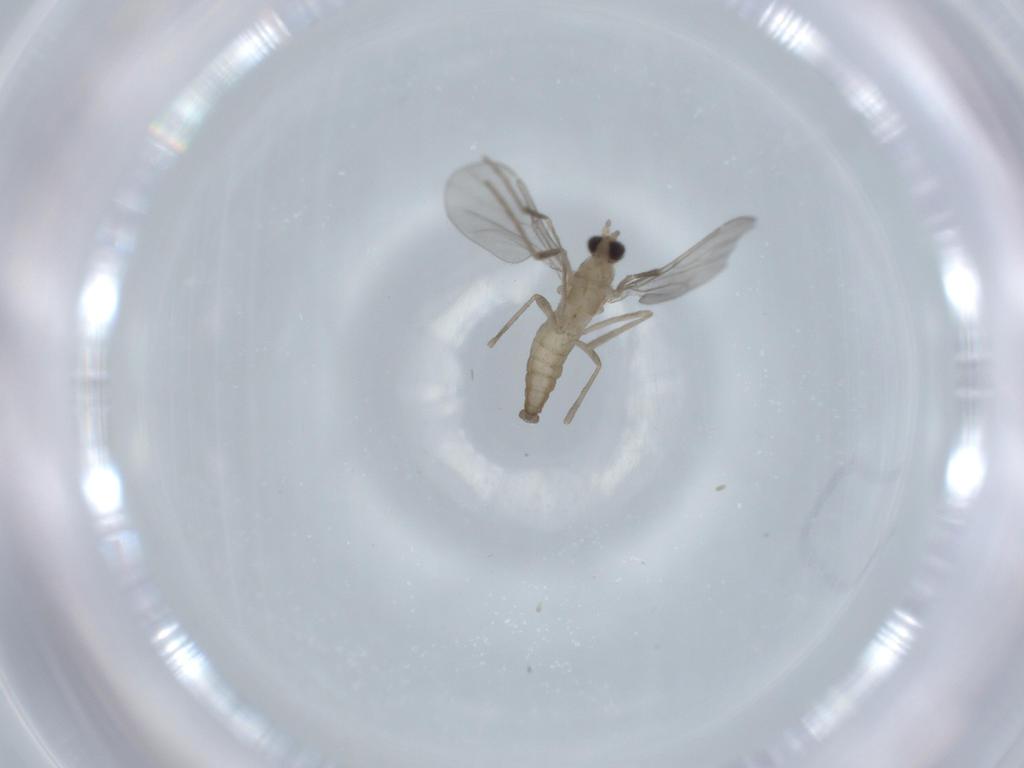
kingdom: Animalia
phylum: Arthropoda
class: Insecta
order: Diptera
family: Cecidomyiidae
